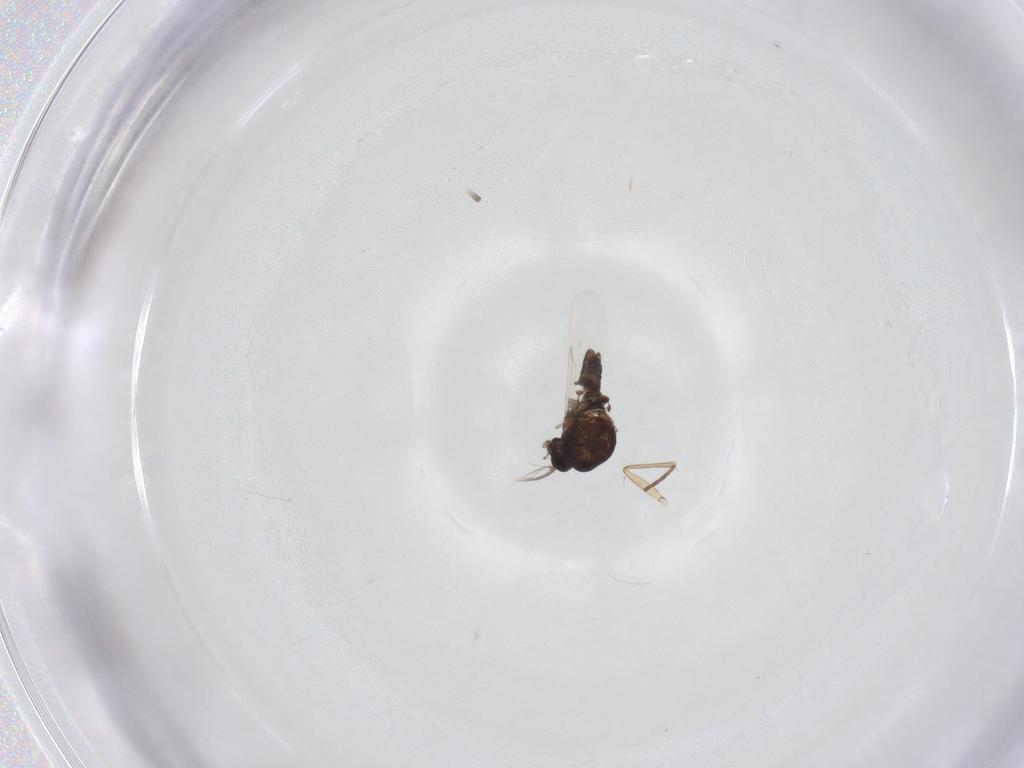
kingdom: Animalia
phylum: Arthropoda
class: Insecta
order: Diptera
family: Ceratopogonidae
